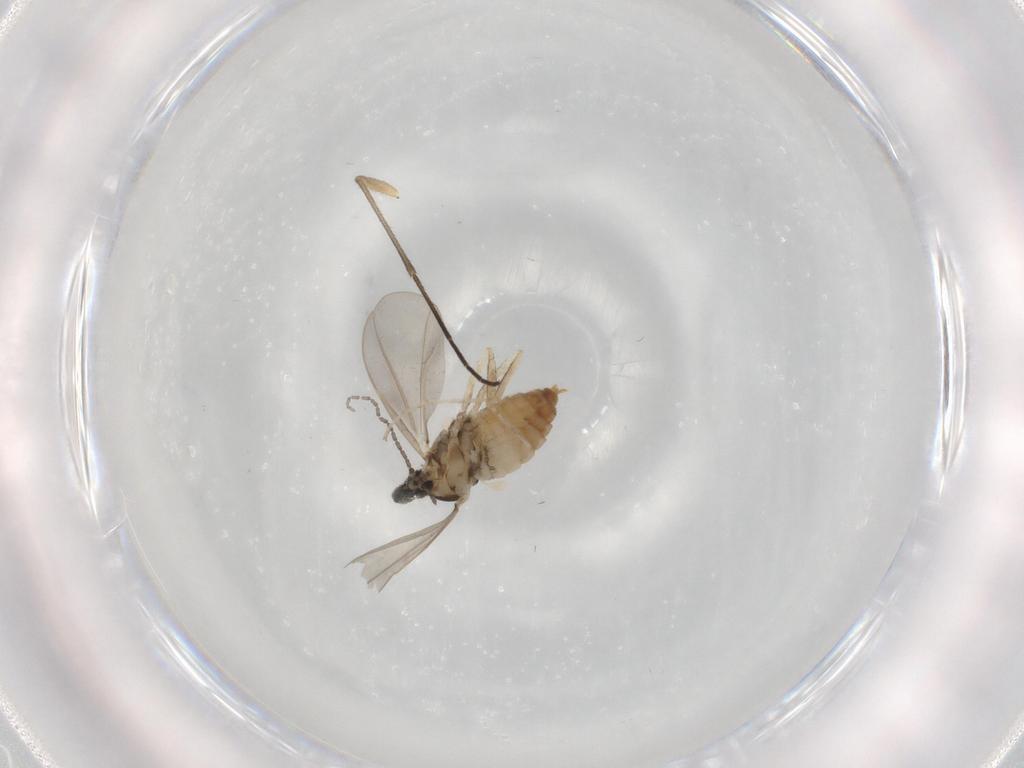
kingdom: Animalia
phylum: Arthropoda
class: Insecta
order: Diptera
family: Cecidomyiidae
